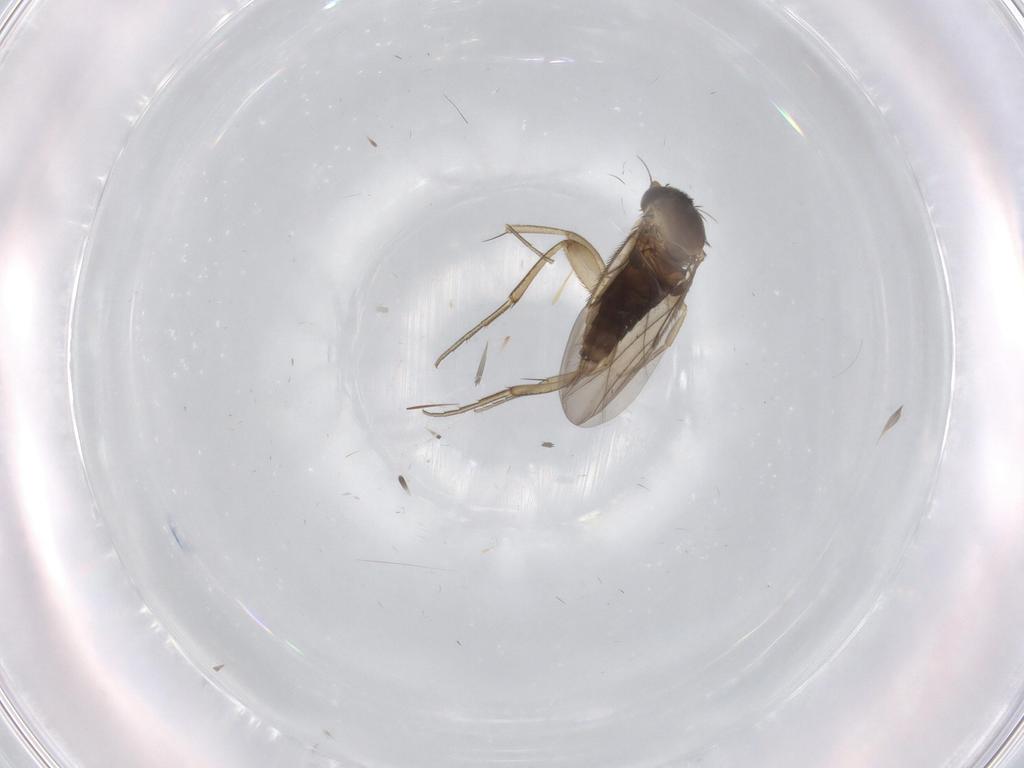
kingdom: Animalia
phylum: Arthropoda
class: Insecta
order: Diptera
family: Phoridae
